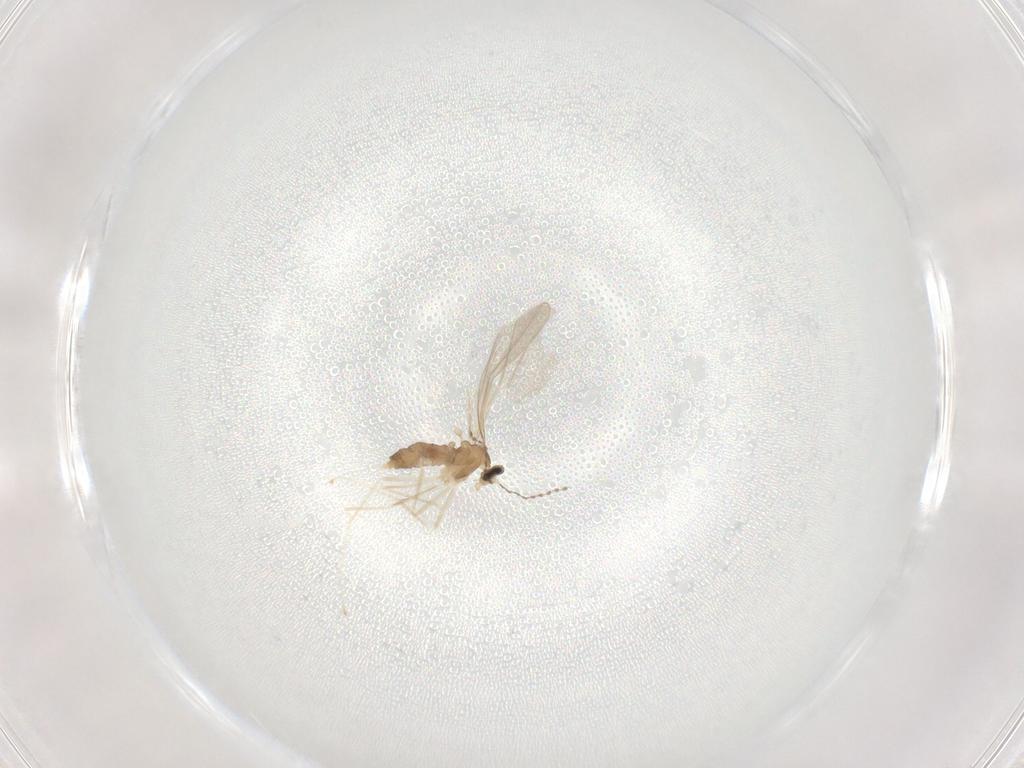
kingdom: Animalia
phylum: Arthropoda
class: Insecta
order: Diptera
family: Cecidomyiidae
